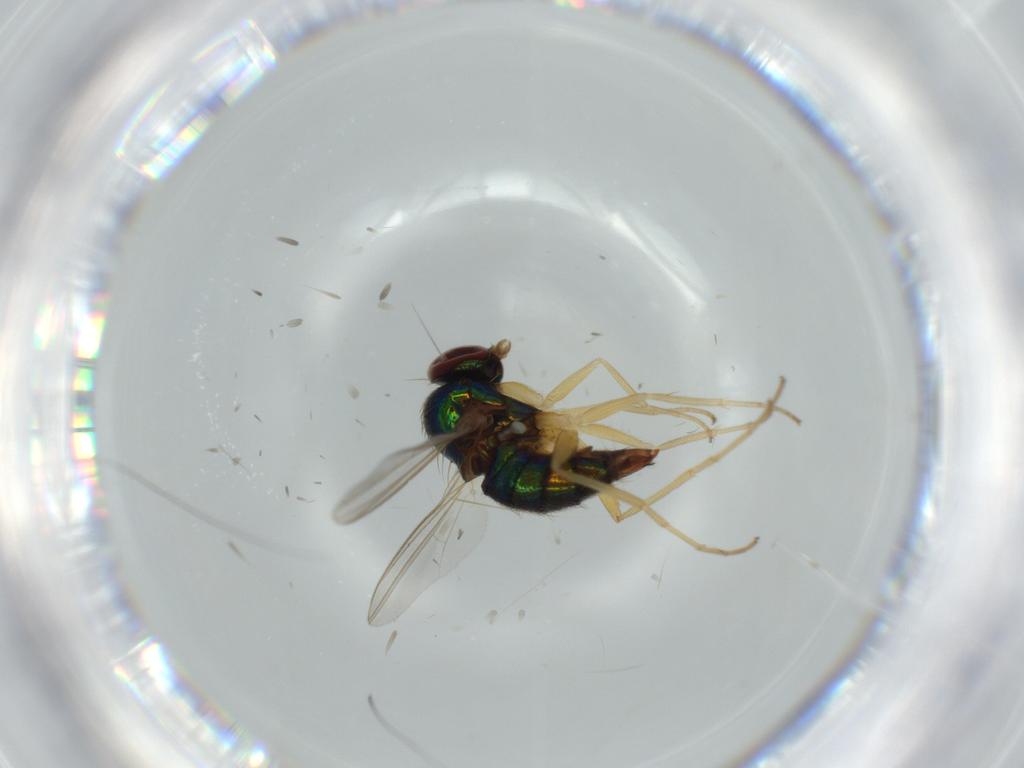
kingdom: Animalia
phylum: Arthropoda
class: Insecta
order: Diptera
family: Dolichopodidae
